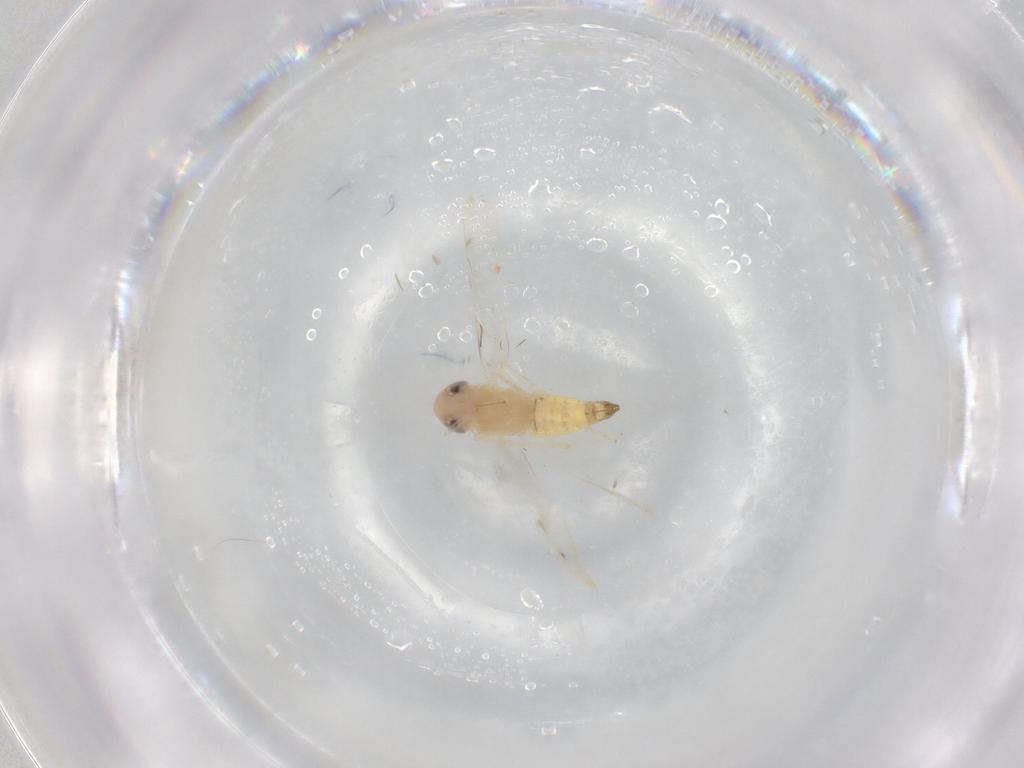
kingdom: Animalia
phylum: Arthropoda
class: Insecta
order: Hemiptera
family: Cicadellidae
